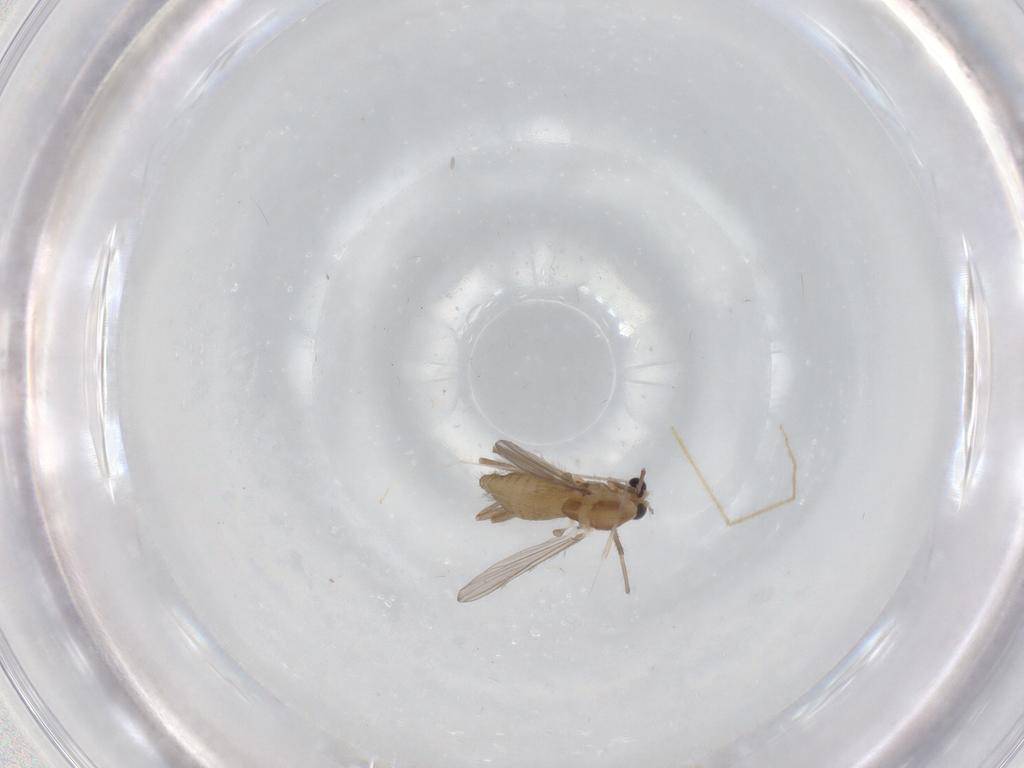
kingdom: Animalia
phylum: Arthropoda
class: Insecta
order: Diptera
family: Chironomidae
